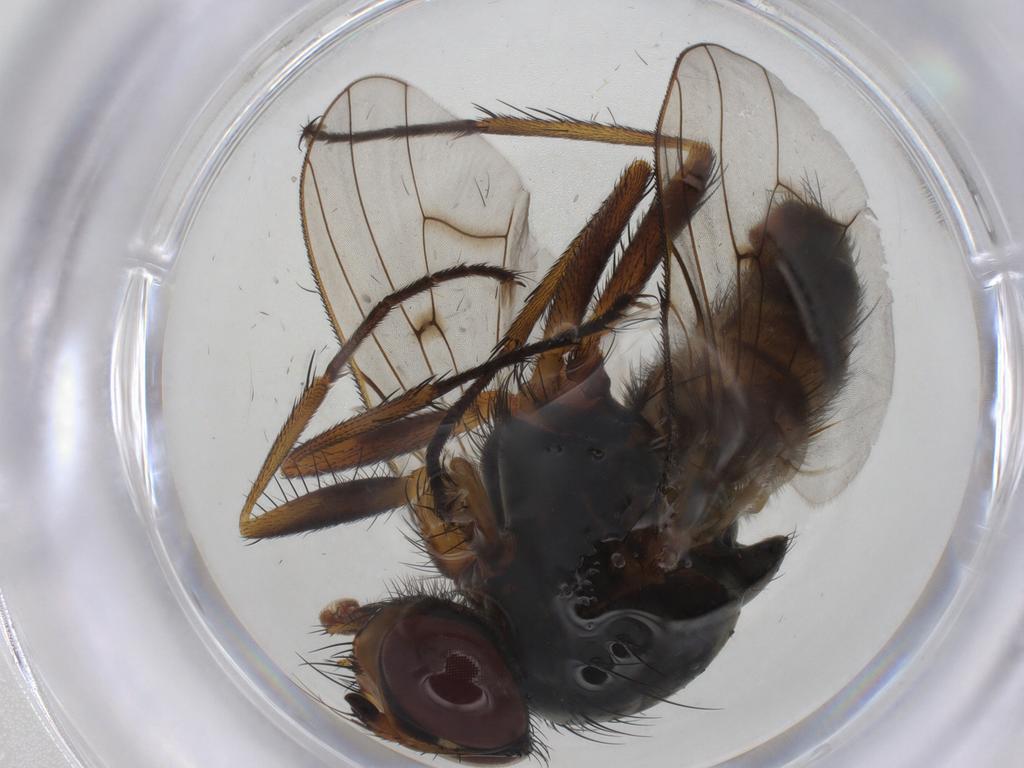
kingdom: Animalia
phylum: Arthropoda
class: Insecta
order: Diptera
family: Anthomyiidae
